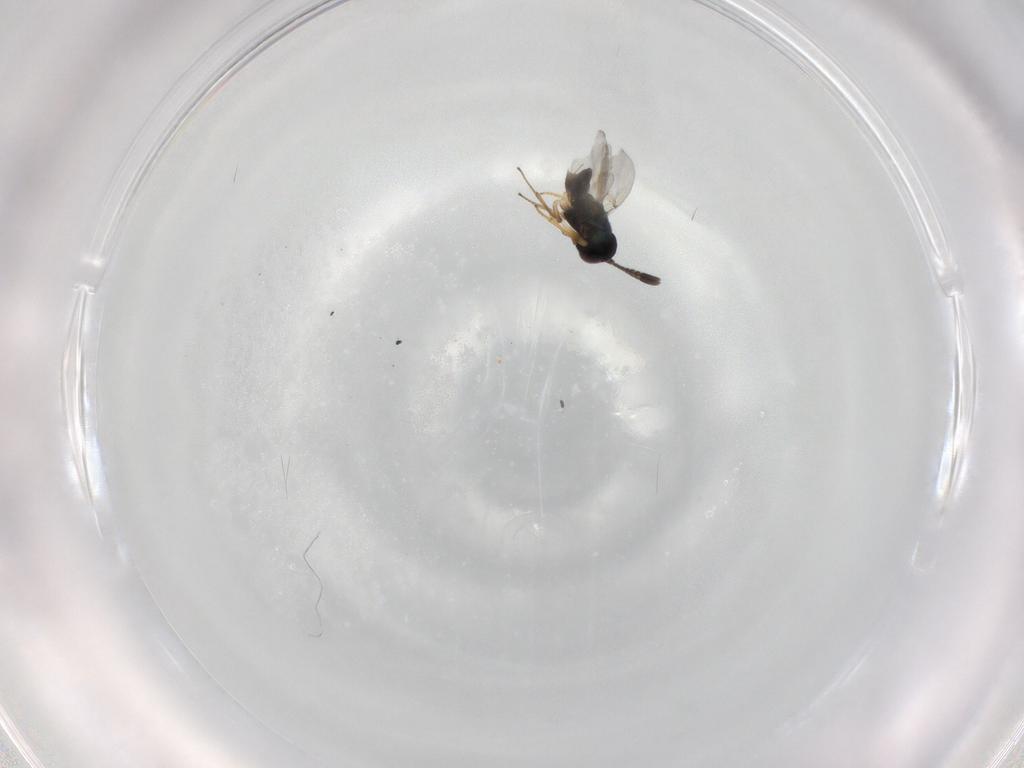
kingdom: Animalia
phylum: Arthropoda
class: Insecta
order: Hymenoptera
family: Encyrtidae
